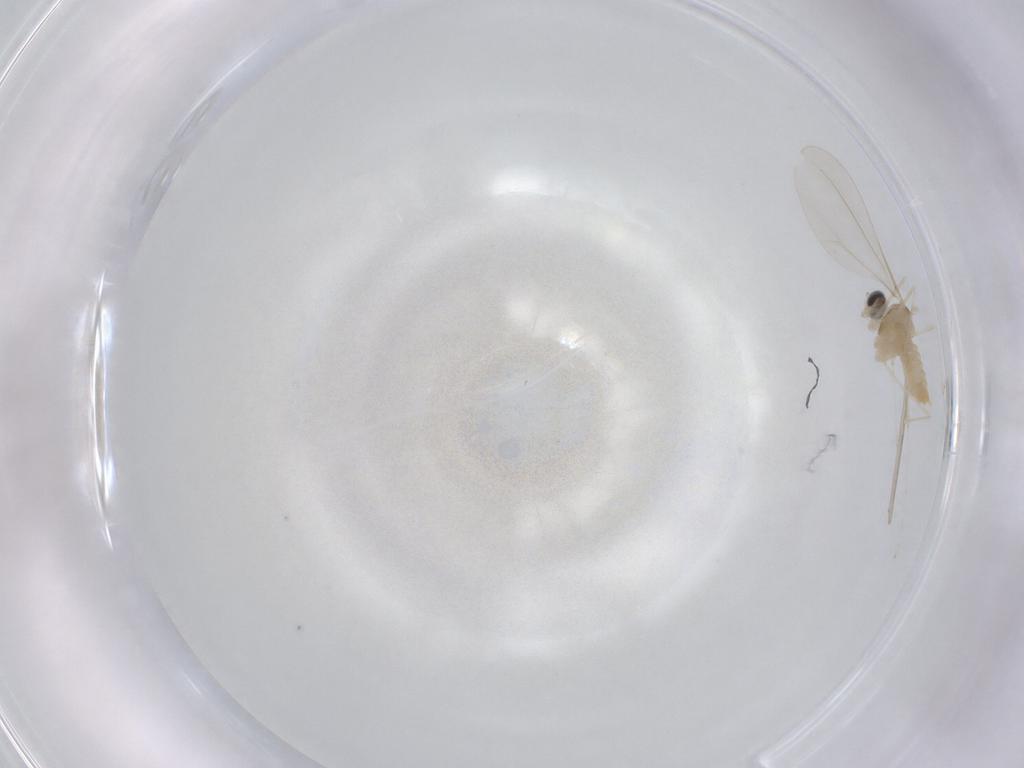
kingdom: Animalia
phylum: Arthropoda
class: Insecta
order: Diptera
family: Cecidomyiidae
